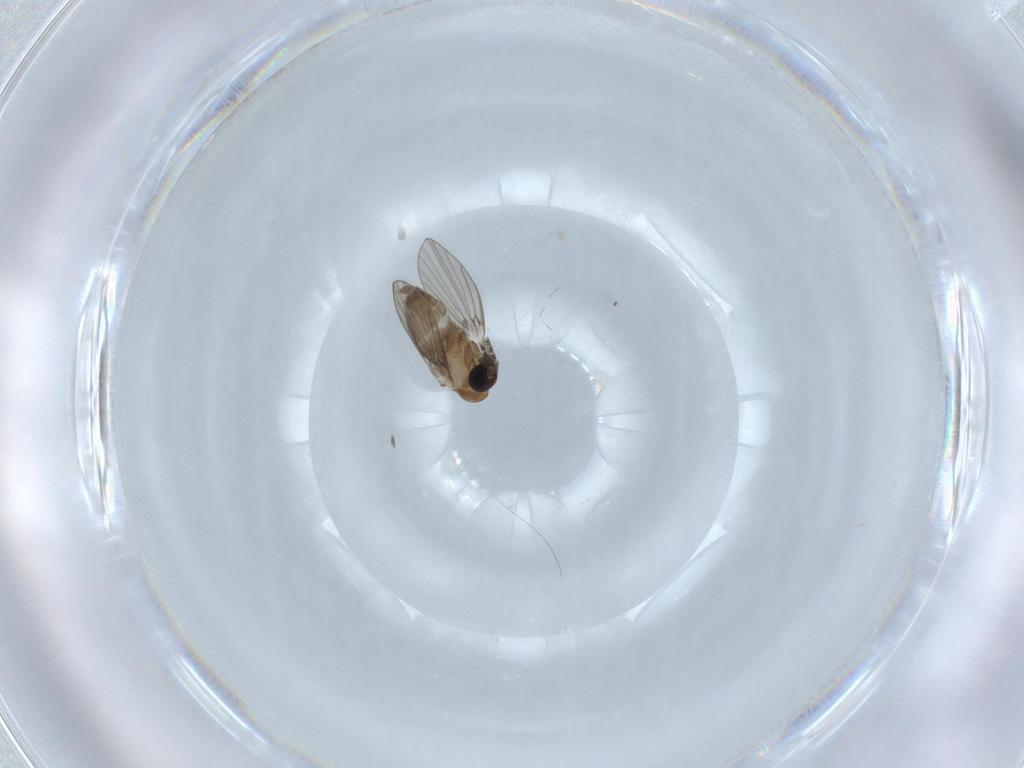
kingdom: Animalia
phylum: Arthropoda
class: Insecta
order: Diptera
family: Cecidomyiidae
